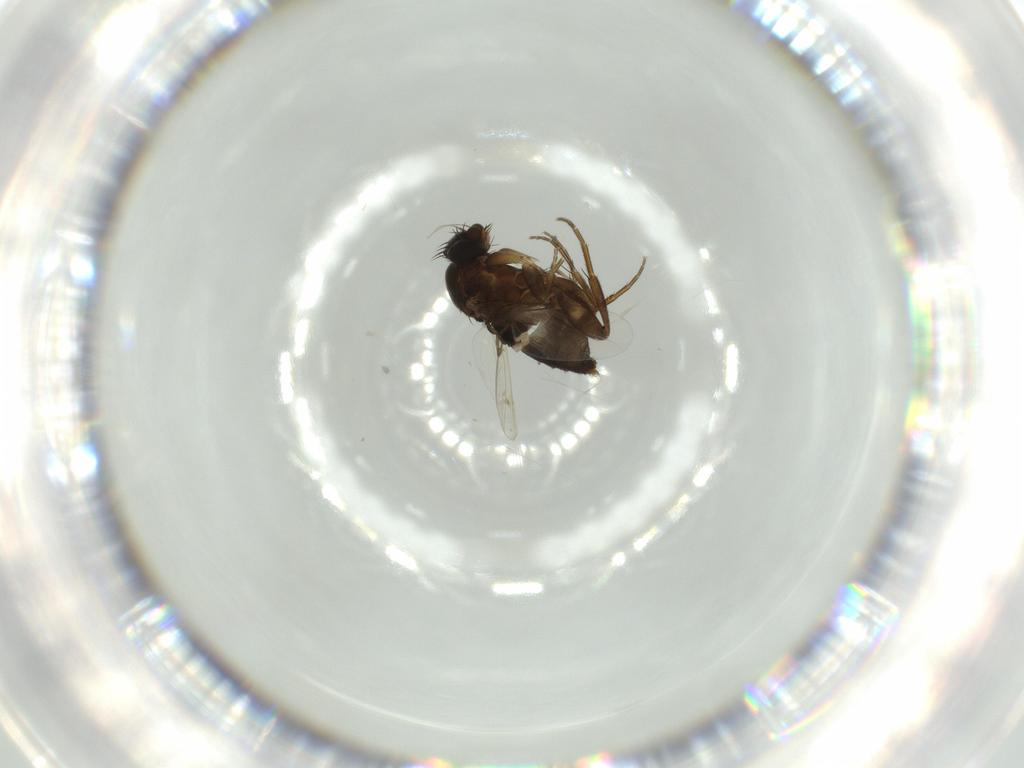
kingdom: Animalia
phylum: Arthropoda
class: Insecta
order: Diptera
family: Phoridae
